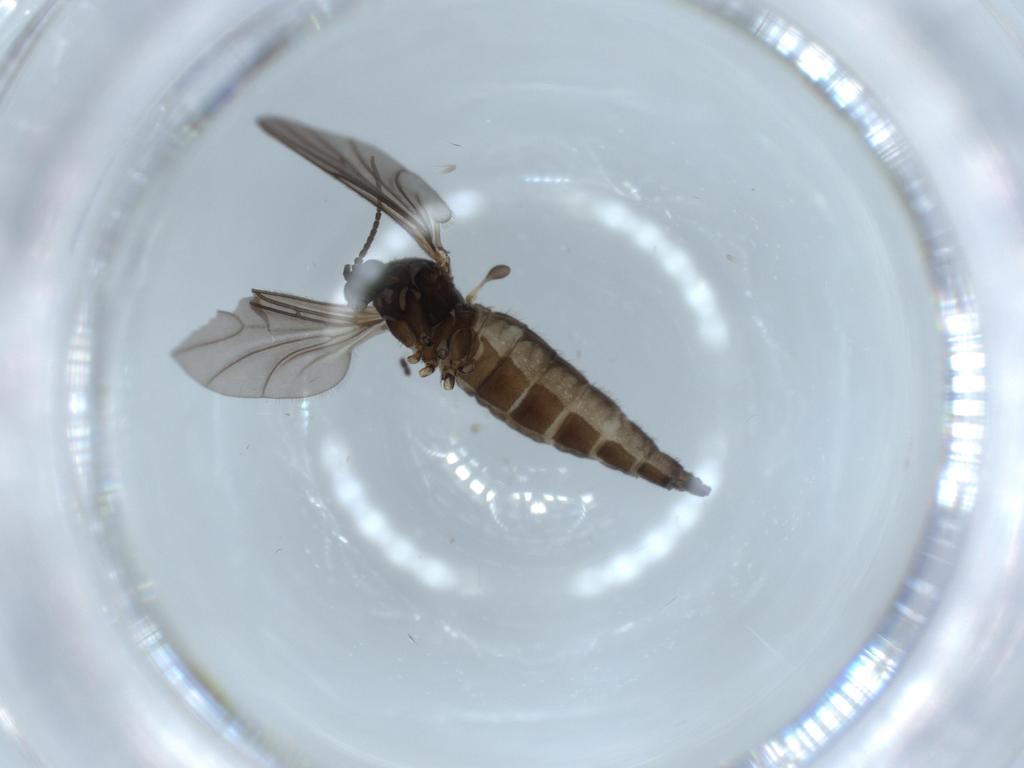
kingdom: Animalia
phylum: Arthropoda
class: Insecta
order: Diptera
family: Sciaridae
